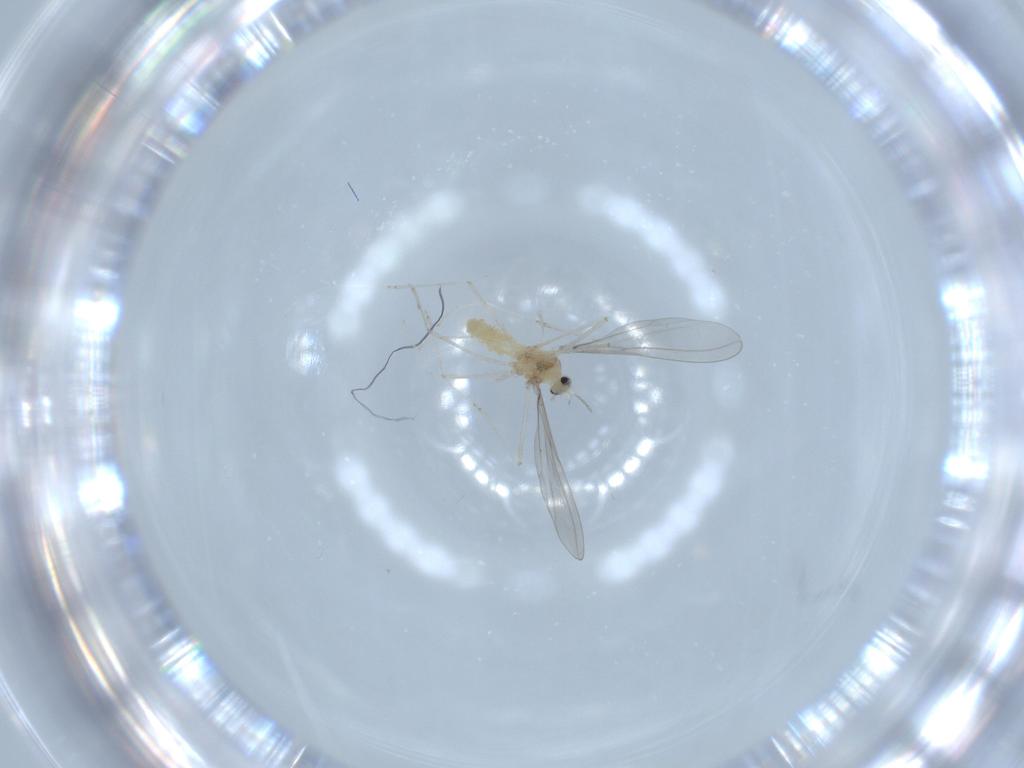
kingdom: Animalia
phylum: Arthropoda
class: Insecta
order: Diptera
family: Cecidomyiidae
